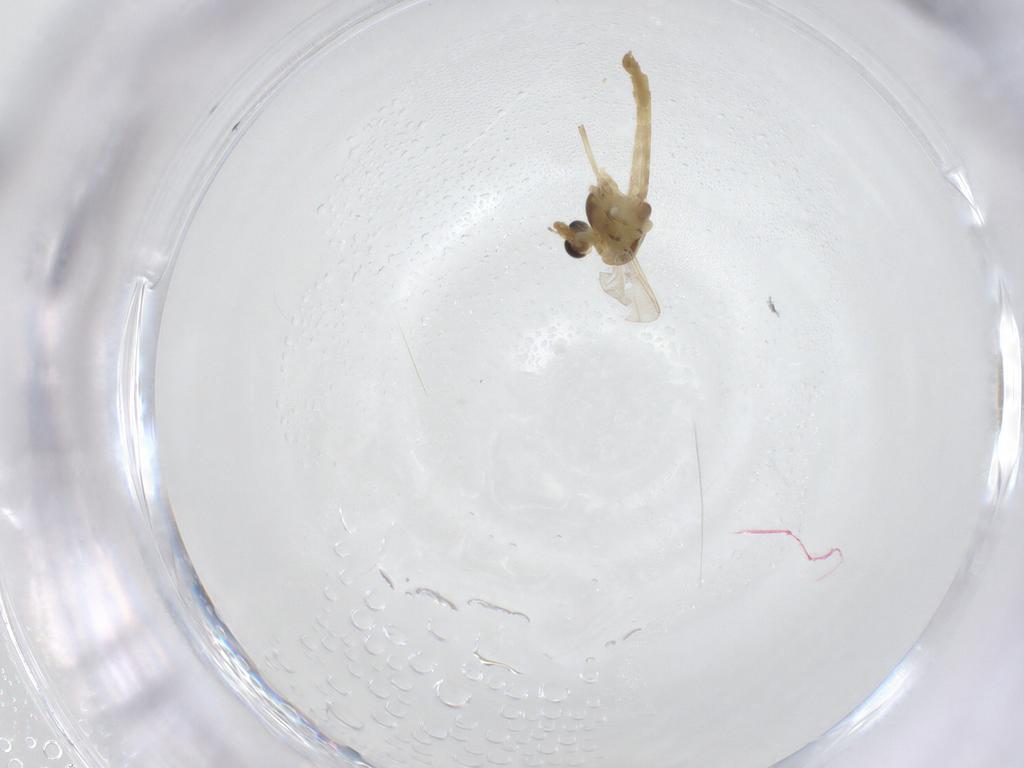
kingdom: Animalia
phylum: Arthropoda
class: Insecta
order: Diptera
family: Chironomidae
